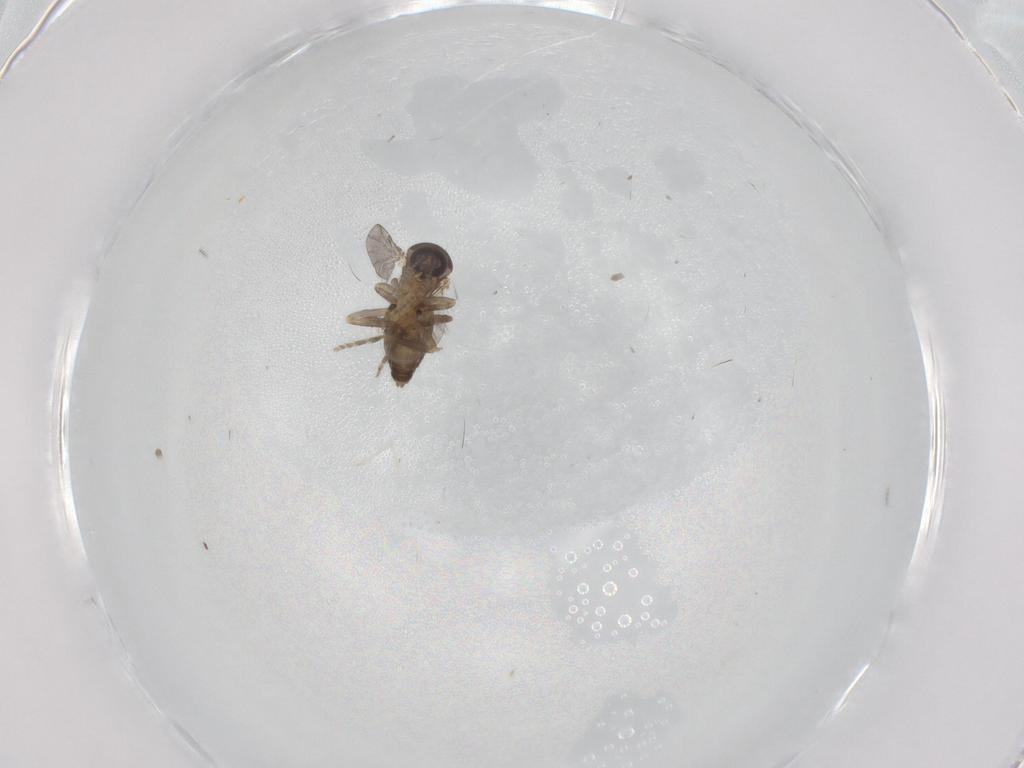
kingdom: Animalia
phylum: Arthropoda
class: Insecta
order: Diptera
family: Ceratopogonidae
